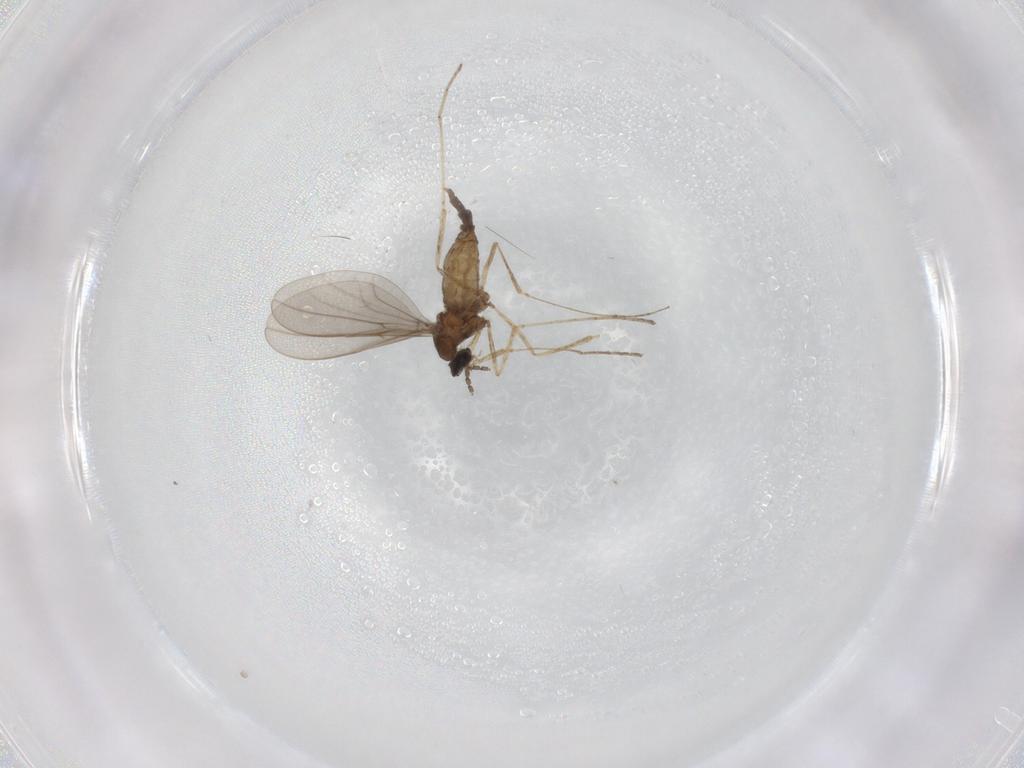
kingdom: Animalia
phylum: Arthropoda
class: Insecta
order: Diptera
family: Cecidomyiidae
